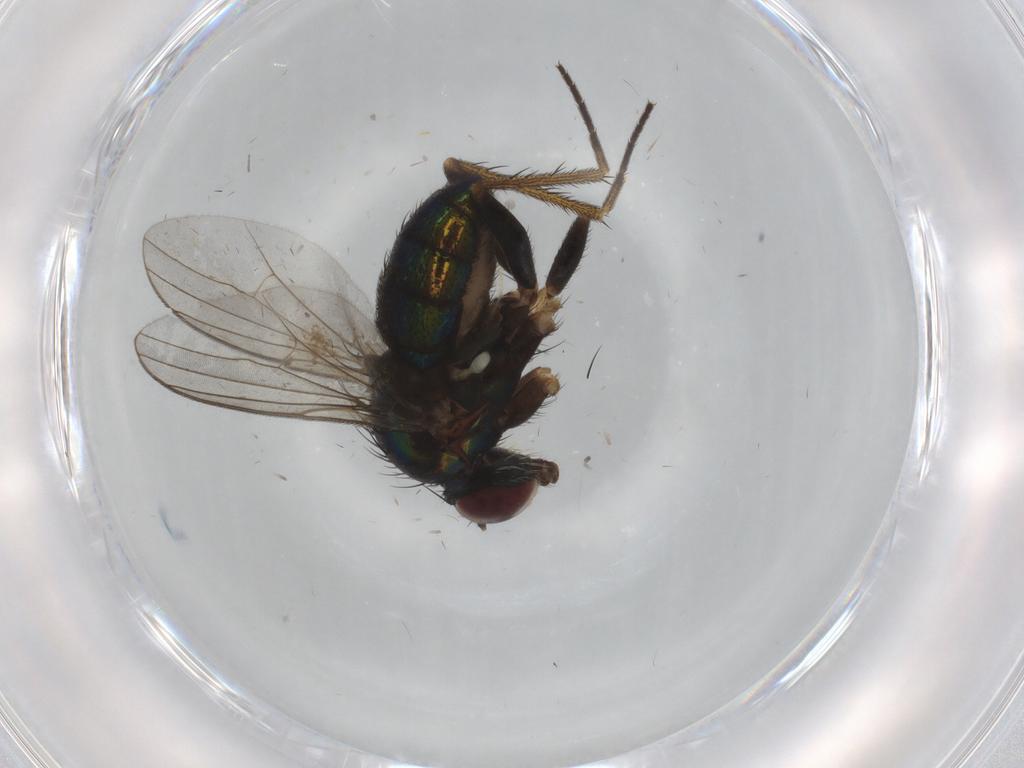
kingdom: Animalia
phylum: Arthropoda
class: Insecta
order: Diptera
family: Dolichopodidae
